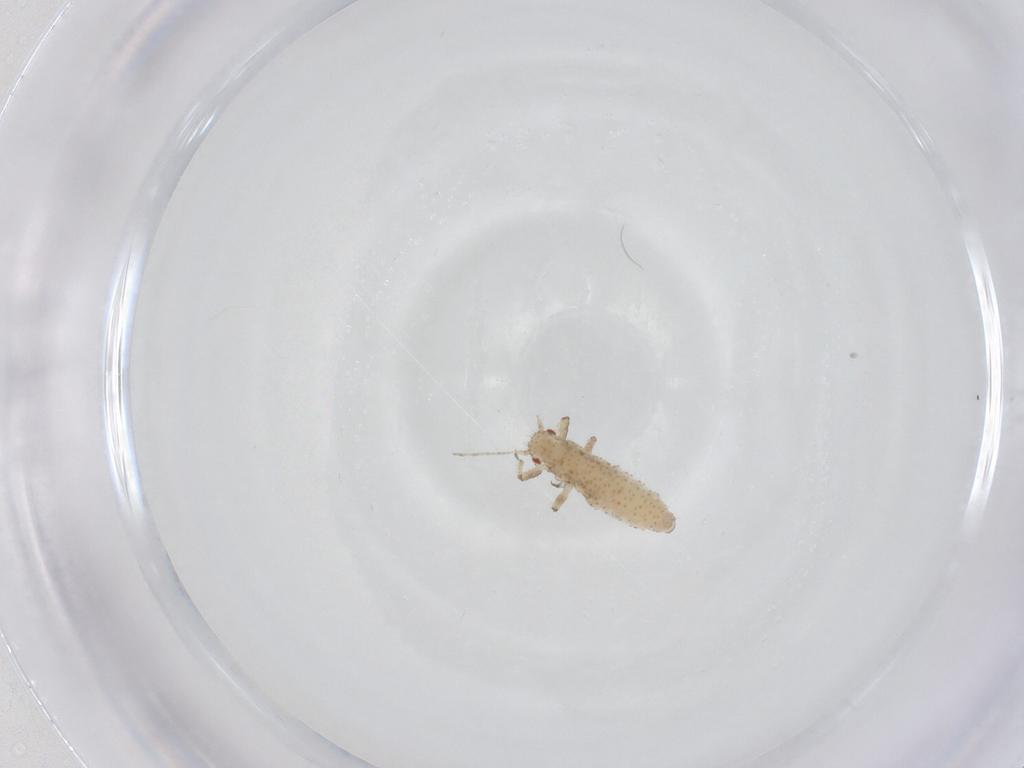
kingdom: Animalia
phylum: Arthropoda
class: Insecta
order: Hemiptera
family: Aphididae
